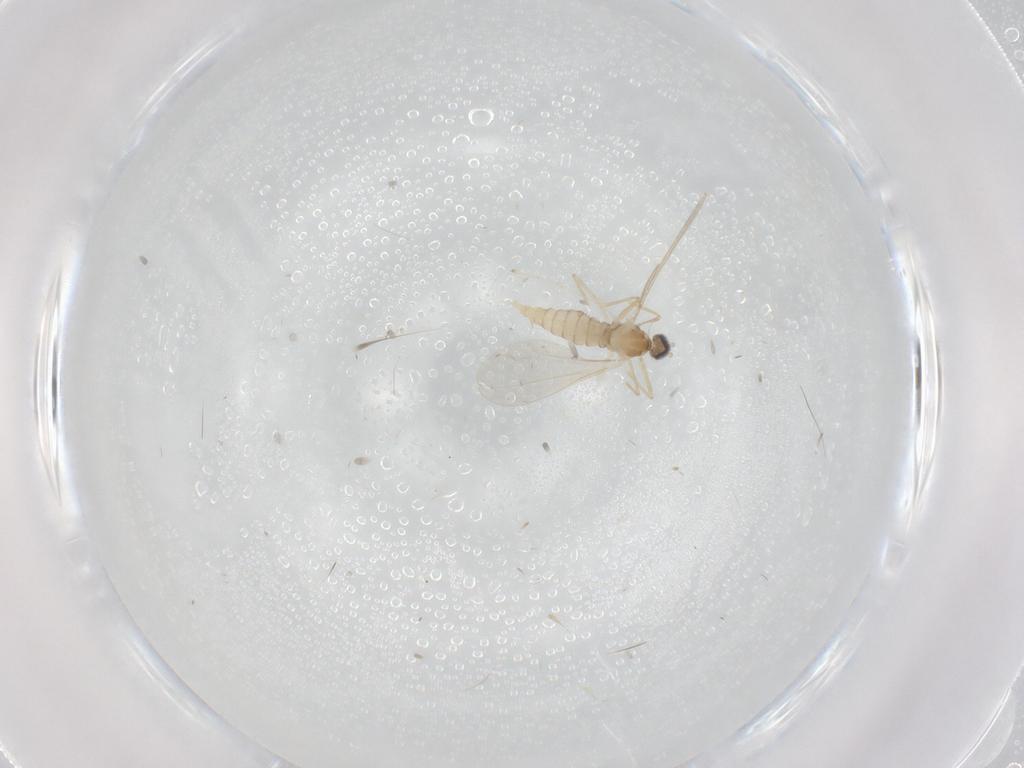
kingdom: Animalia
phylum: Arthropoda
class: Insecta
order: Diptera
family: Cecidomyiidae
